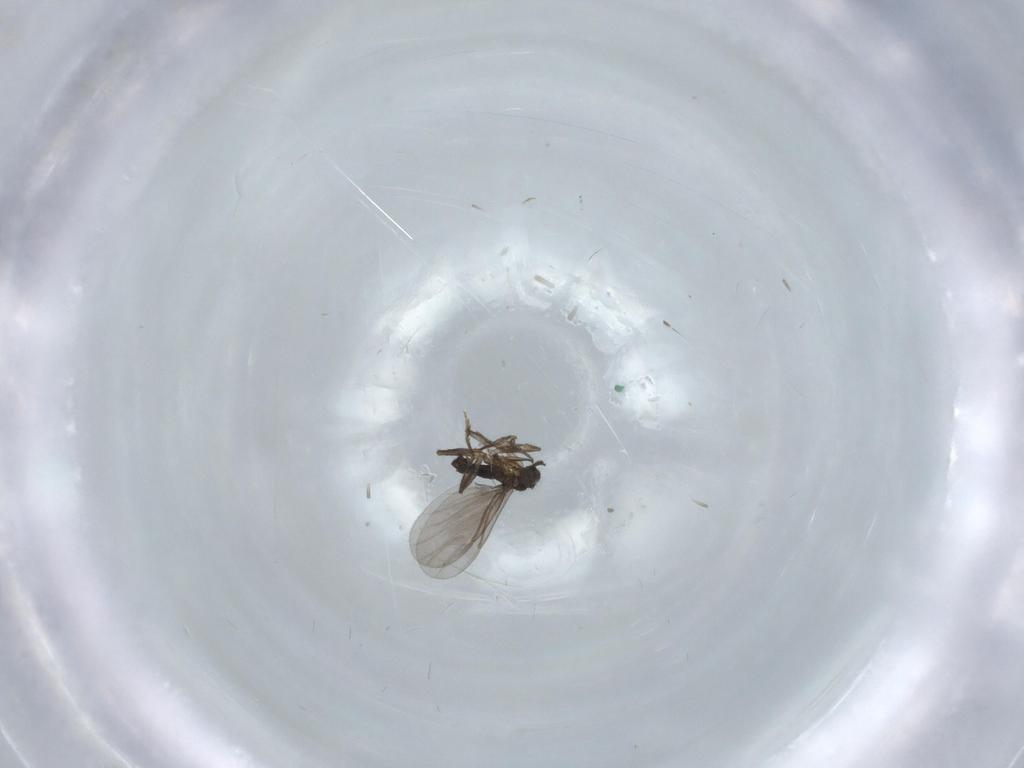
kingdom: Animalia
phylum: Arthropoda
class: Insecta
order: Diptera
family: Phoridae
